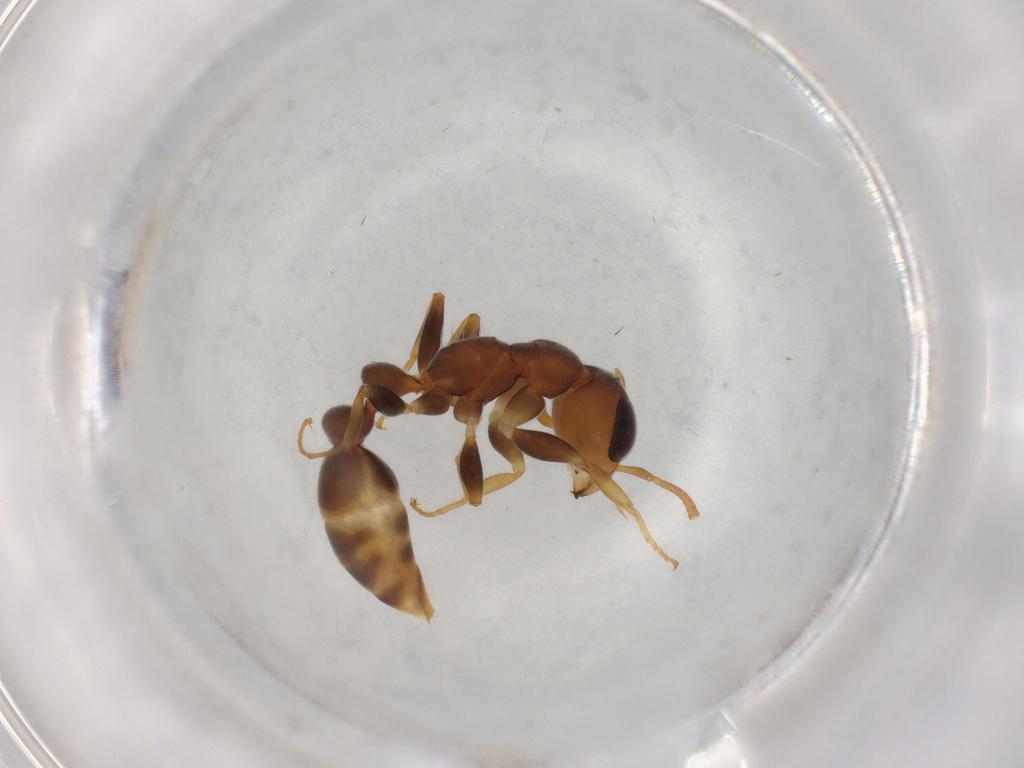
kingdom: Animalia
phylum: Arthropoda
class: Insecta
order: Hymenoptera
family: Formicidae
